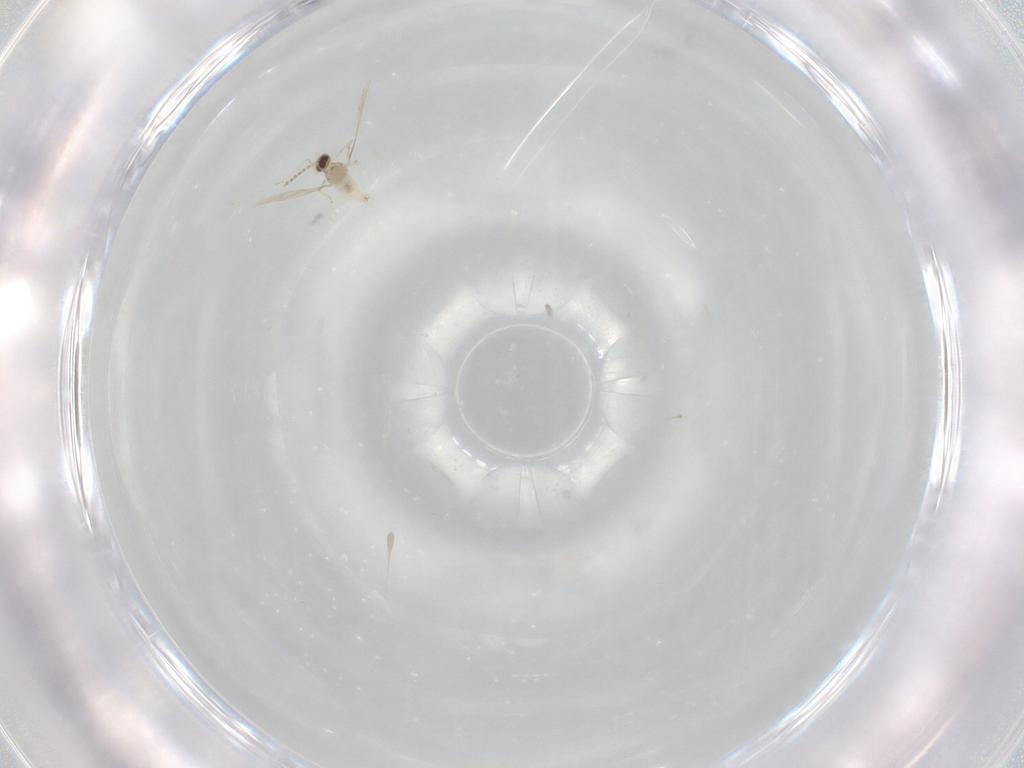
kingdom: Animalia
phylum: Arthropoda
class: Insecta
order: Diptera
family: Cecidomyiidae
